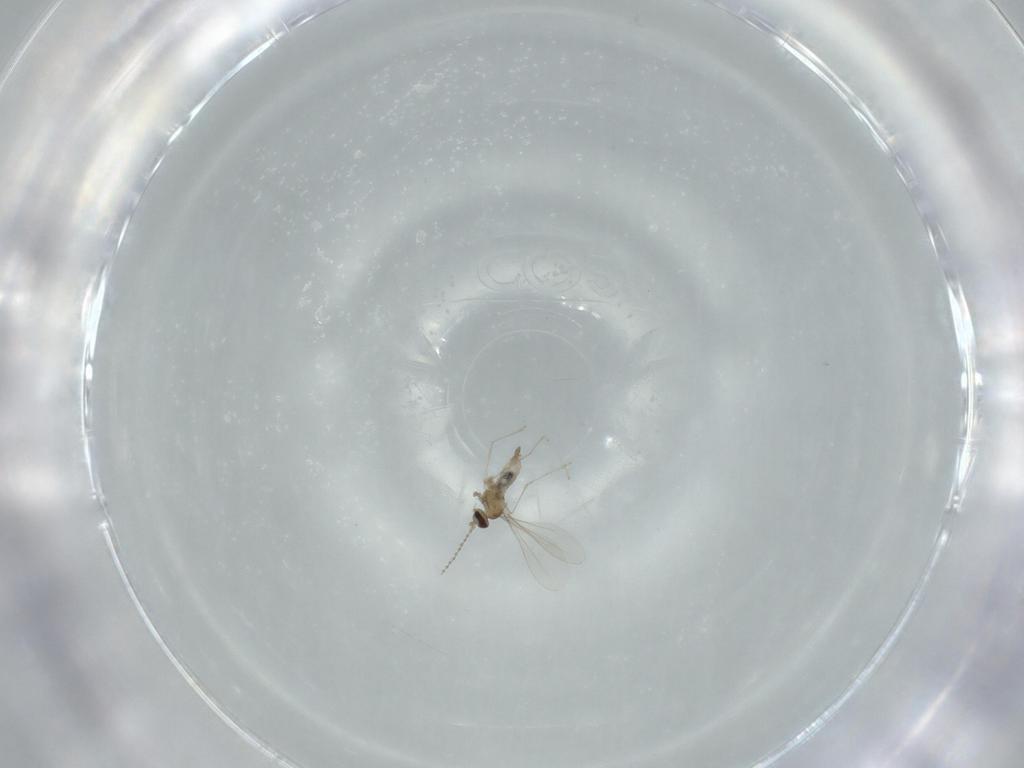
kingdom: Animalia
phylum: Arthropoda
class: Insecta
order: Diptera
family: Cecidomyiidae
